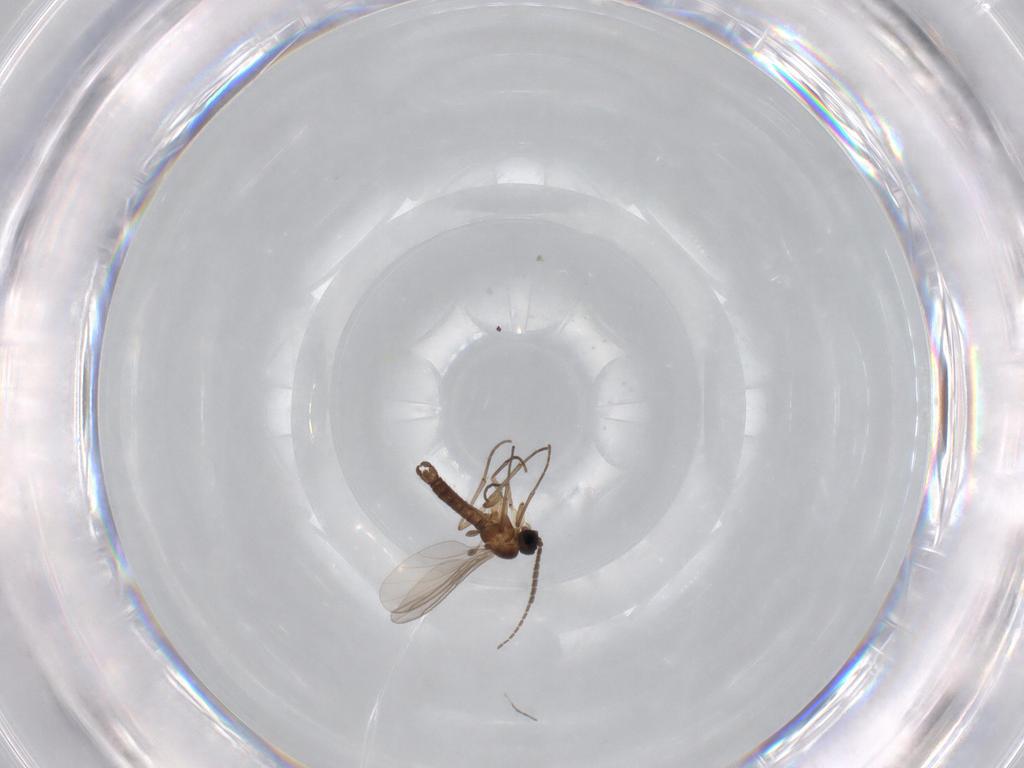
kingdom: Animalia
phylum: Arthropoda
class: Insecta
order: Diptera
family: Sciaridae
